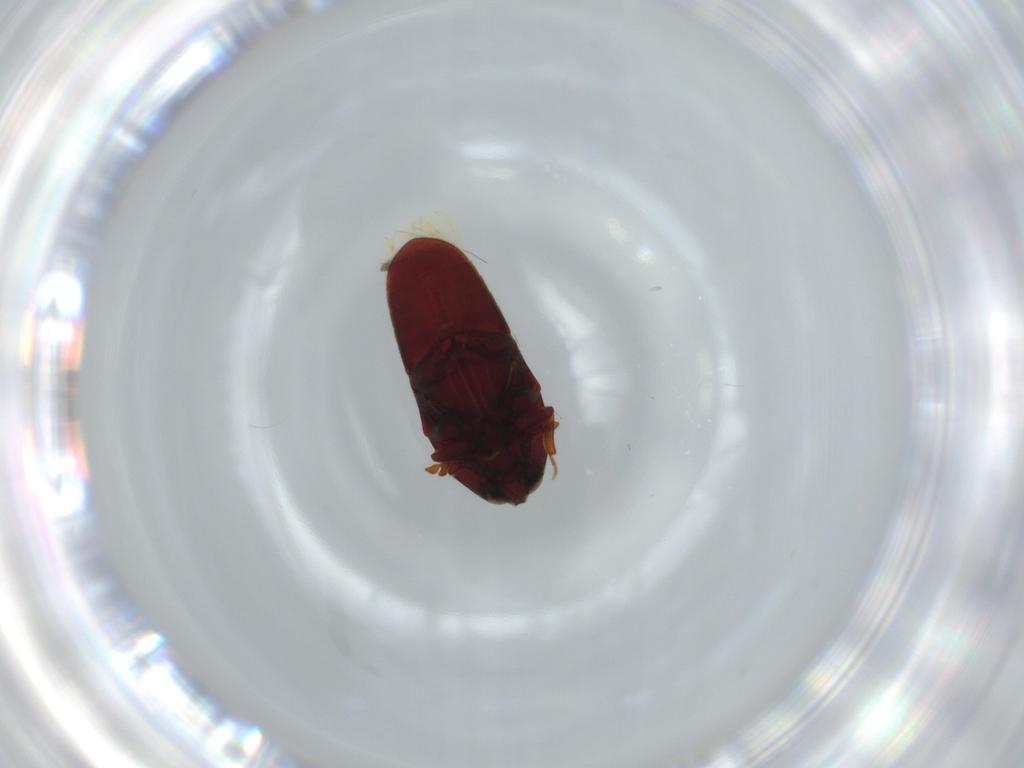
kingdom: Animalia
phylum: Arthropoda
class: Insecta
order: Coleoptera
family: Throscidae
